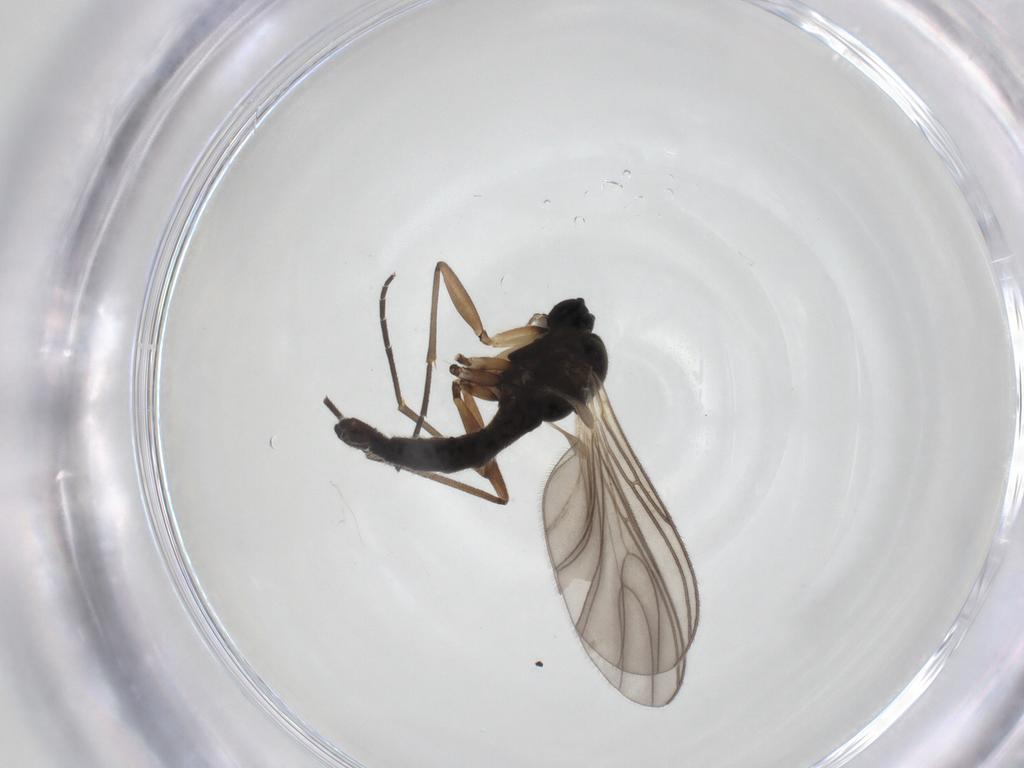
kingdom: Animalia
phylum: Arthropoda
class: Insecta
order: Diptera
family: Sciaridae
